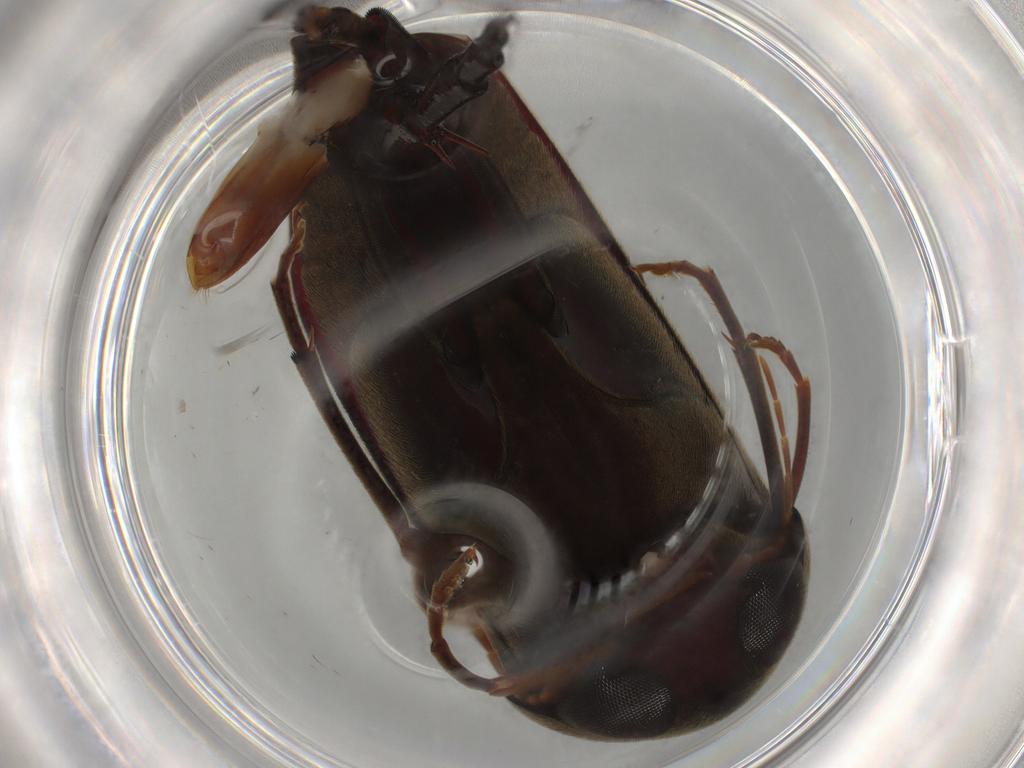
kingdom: Animalia
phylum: Arthropoda
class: Insecta
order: Coleoptera
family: Mordellidae
